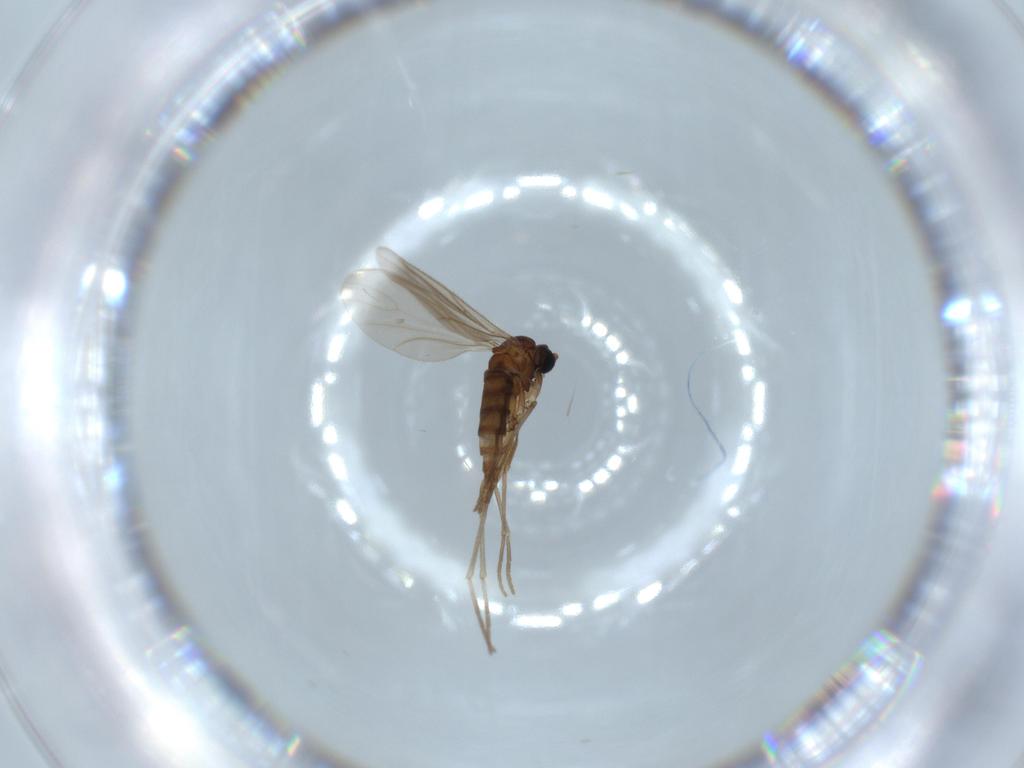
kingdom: Animalia
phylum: Arthropoda
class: Insecta
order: Diptera
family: Sciaridae
